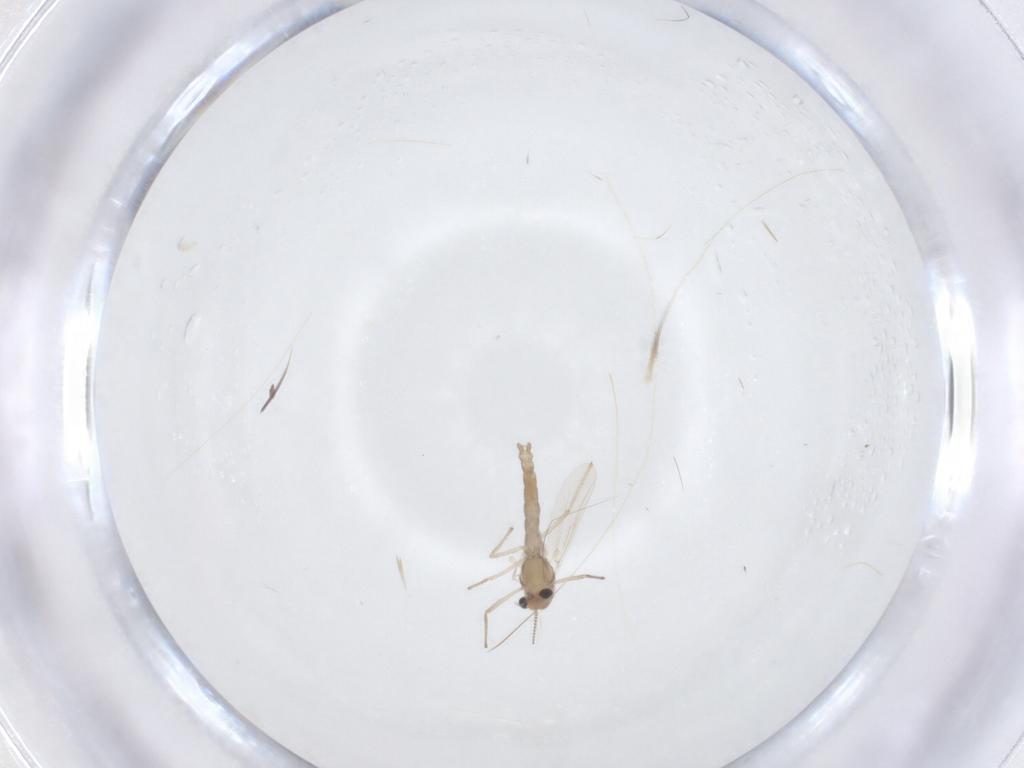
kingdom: Animalia
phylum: Arthropoda
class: Insecta
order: Diptera
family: Chironomidae
